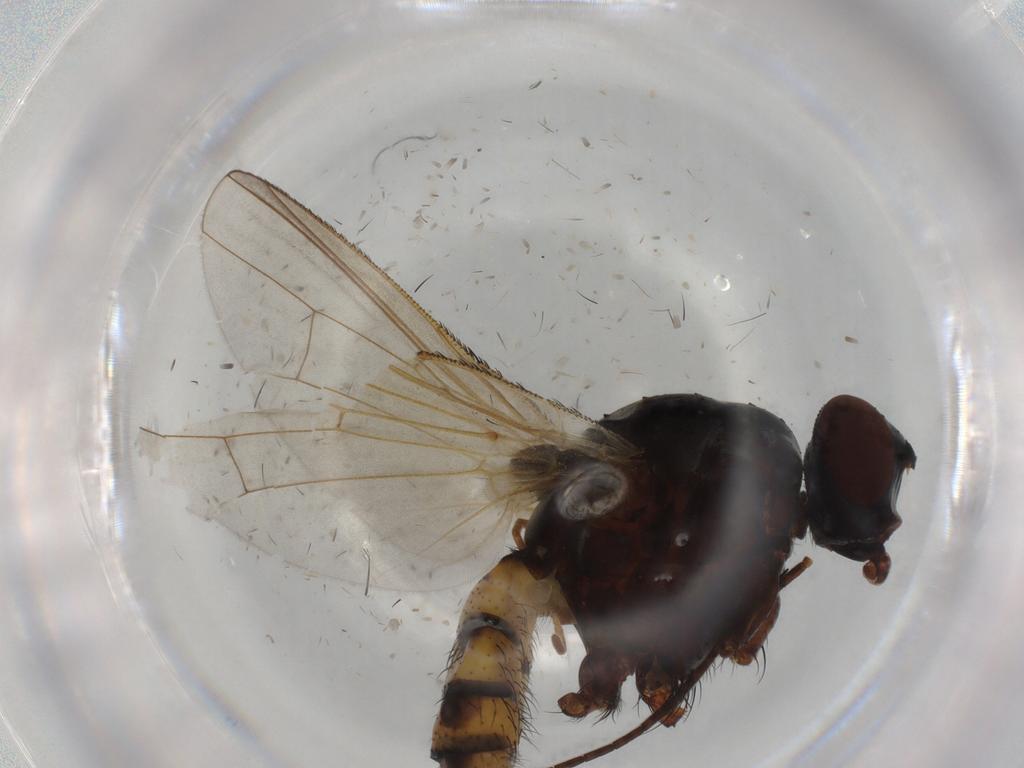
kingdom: Animalia
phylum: Arthropoda
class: Insecta
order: Diptera
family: Anthomyiidae
